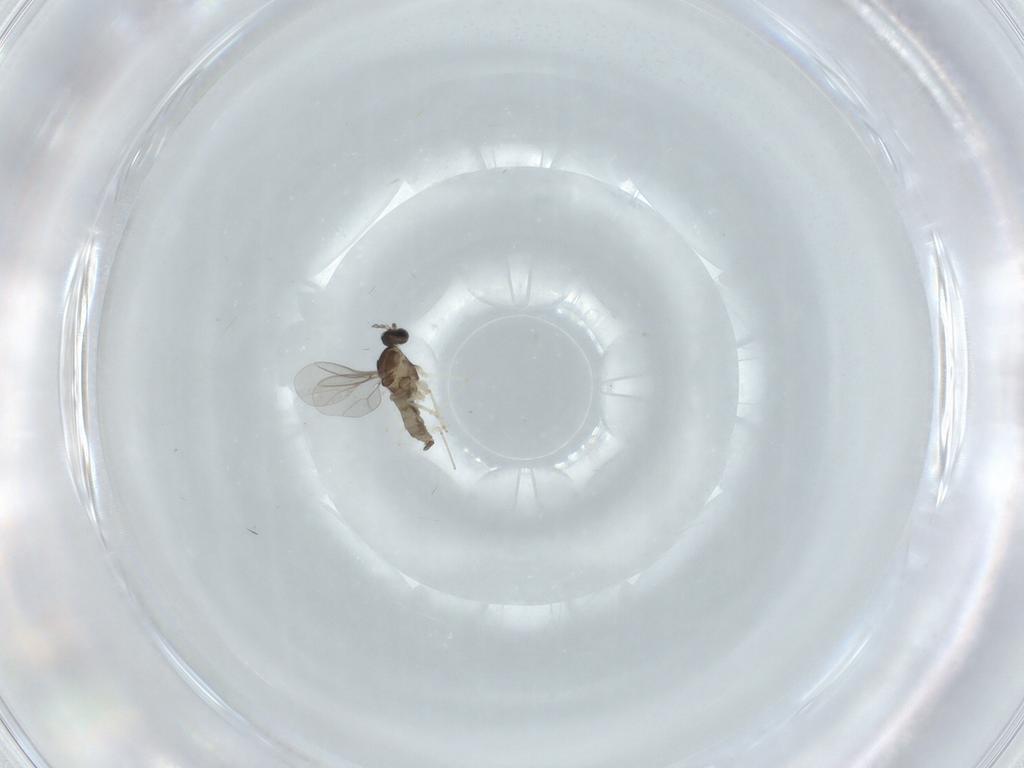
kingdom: Animalia
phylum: Arthropoda
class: Insecta
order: Diptera
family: Cecidomyiidae
